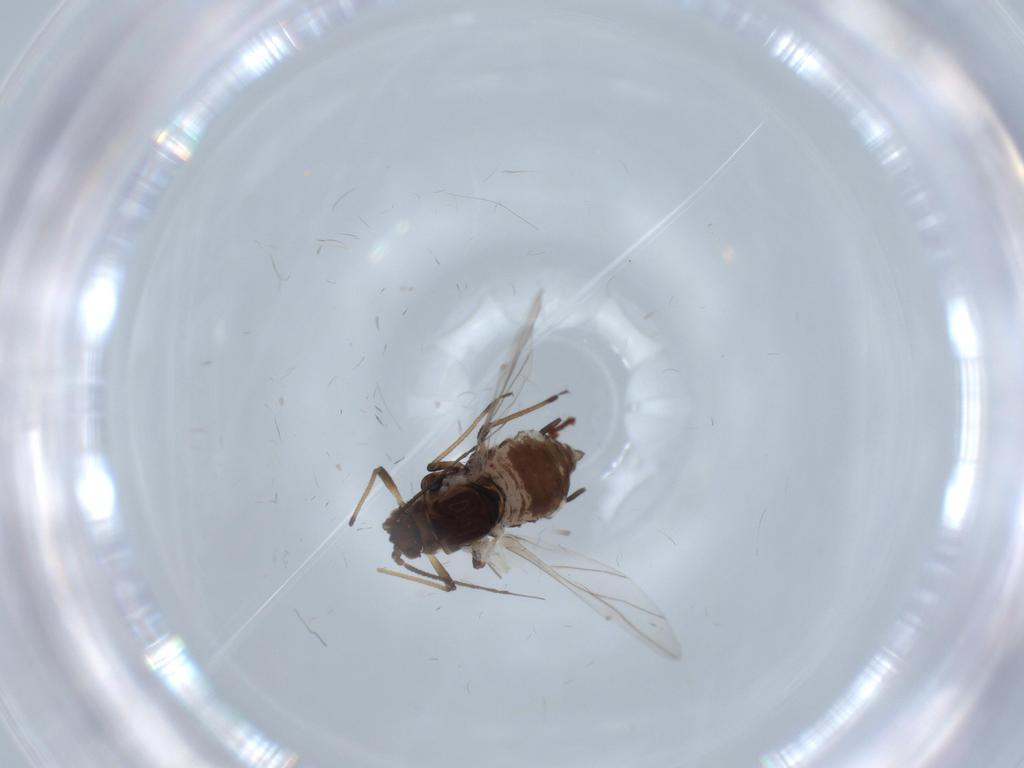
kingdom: Animalia
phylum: Arthropoda
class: Insecta
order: Hemiptera
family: Aphididae
